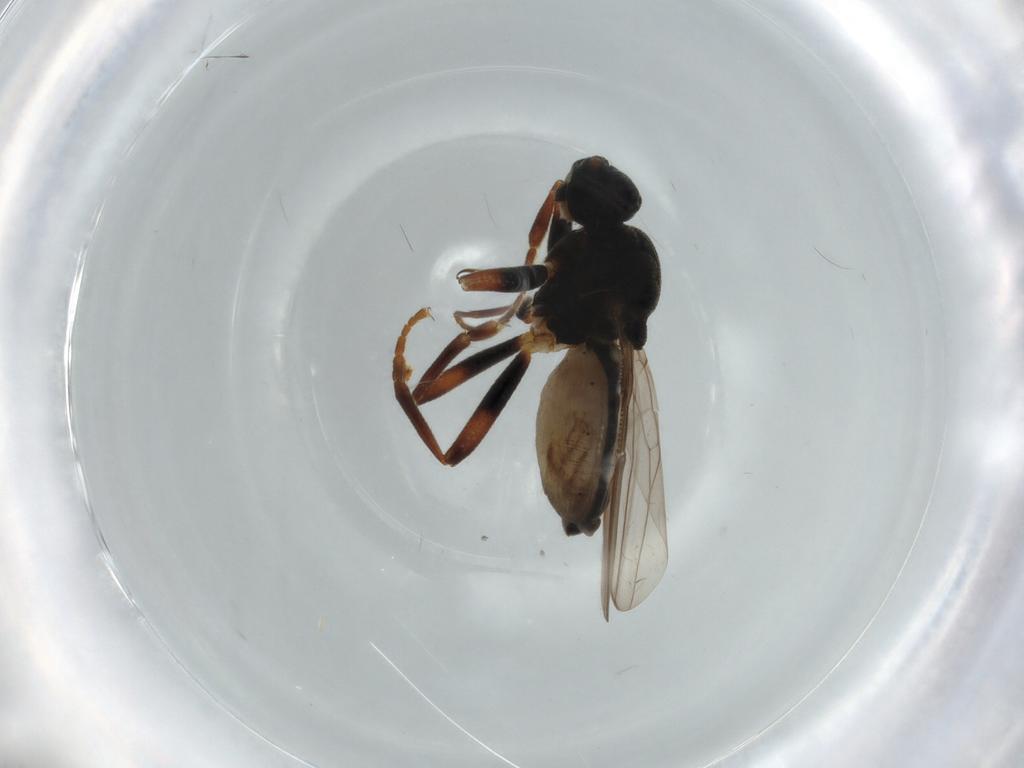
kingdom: Animalia
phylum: Arthropoda
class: Insecta
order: Diptera
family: Sphaeroceridae
